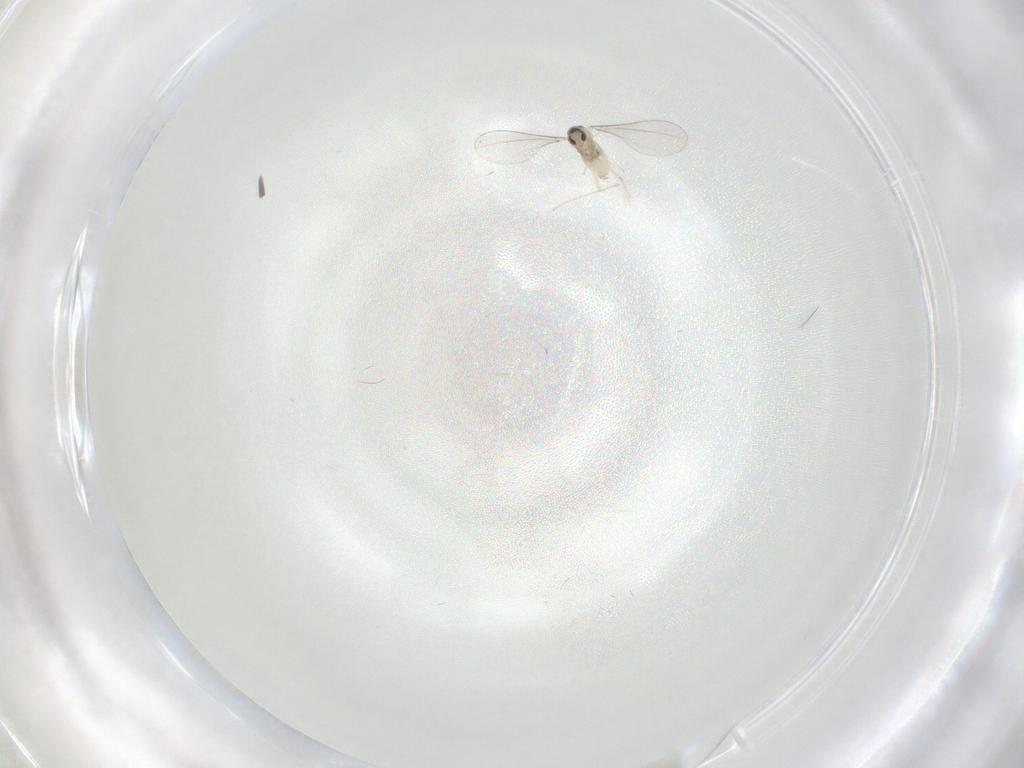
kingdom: Animalia
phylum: Arthropoda
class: Insecta
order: Diptera
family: Cecidomyiidae
